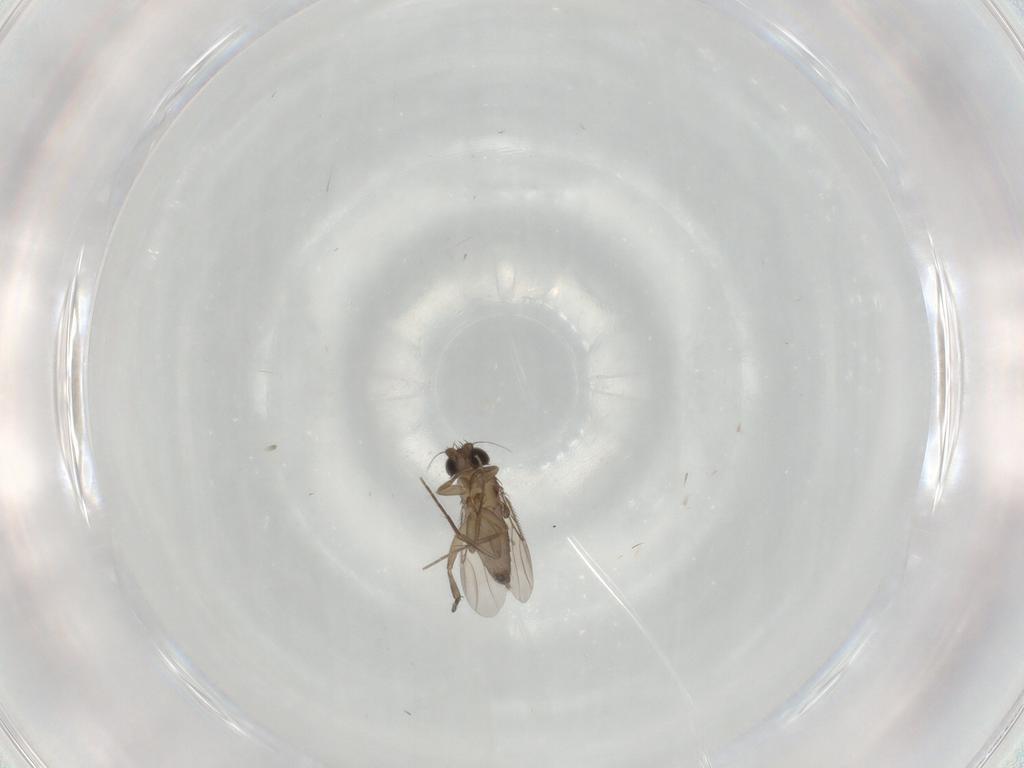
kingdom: Animalia
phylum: Arthropoda
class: Insecta
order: Diptera
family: Phoridae
